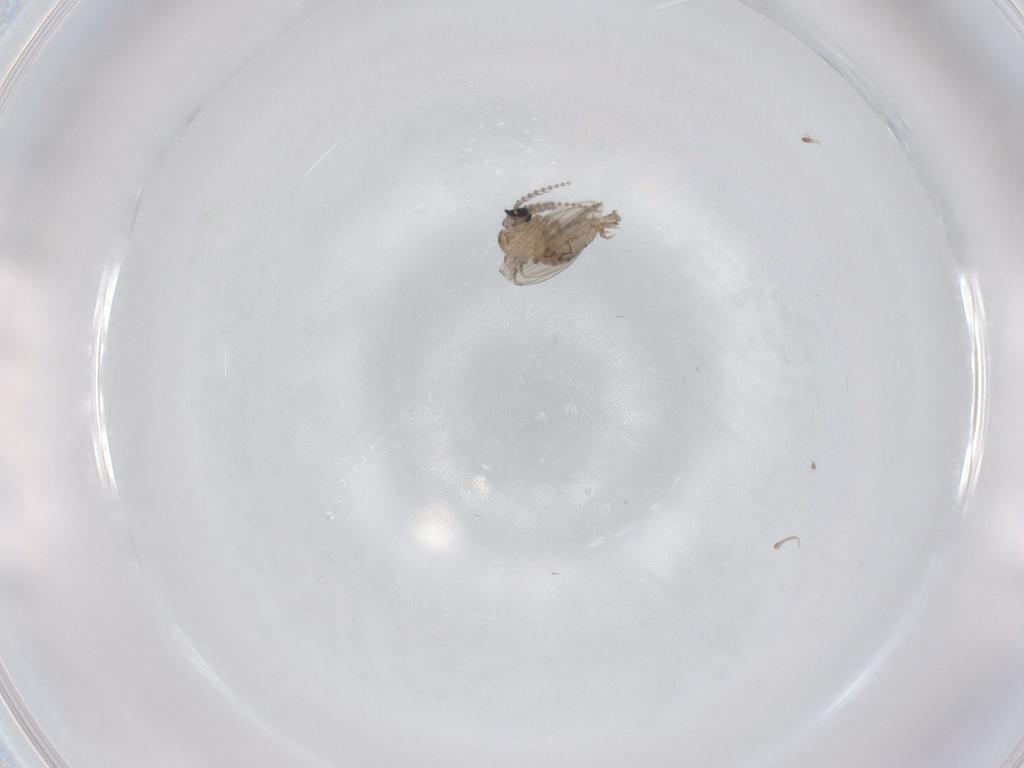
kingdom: Animalia
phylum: Arthropoda
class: Insecta
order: Diptera
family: Psychodidae
